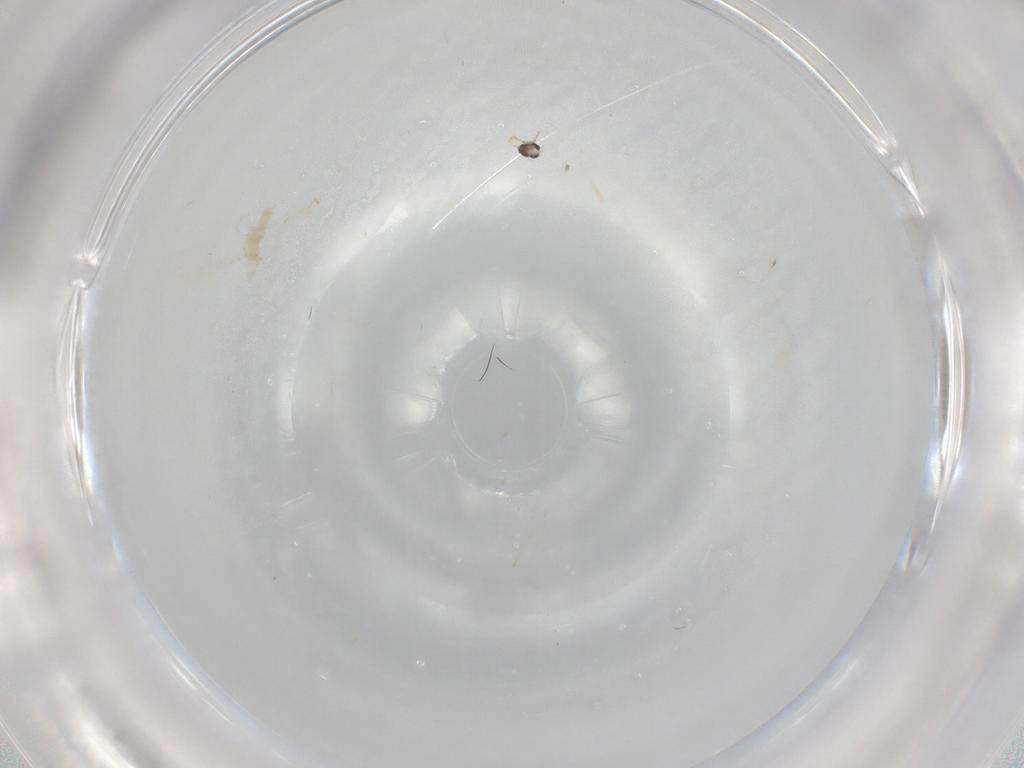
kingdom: Animalia
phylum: Arthropoda
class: Insecta
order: Diptera
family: Cecidomyiidae
